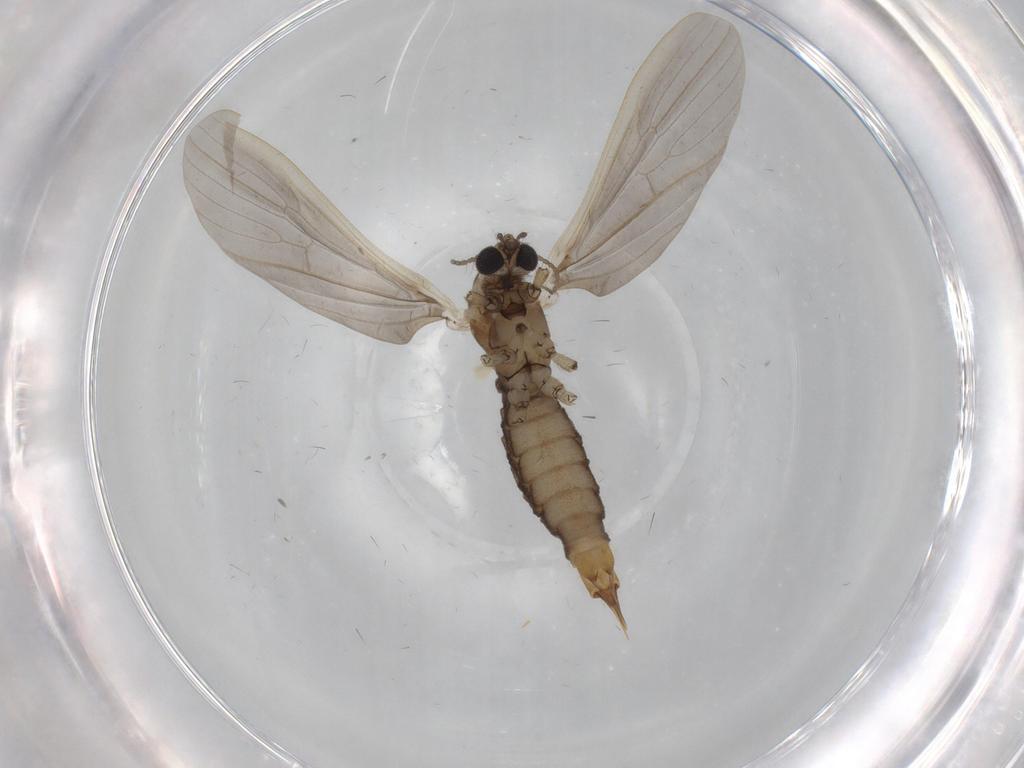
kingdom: Animalia
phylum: Arthropoda
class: Insecta
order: Diptera
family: Limoniidae
